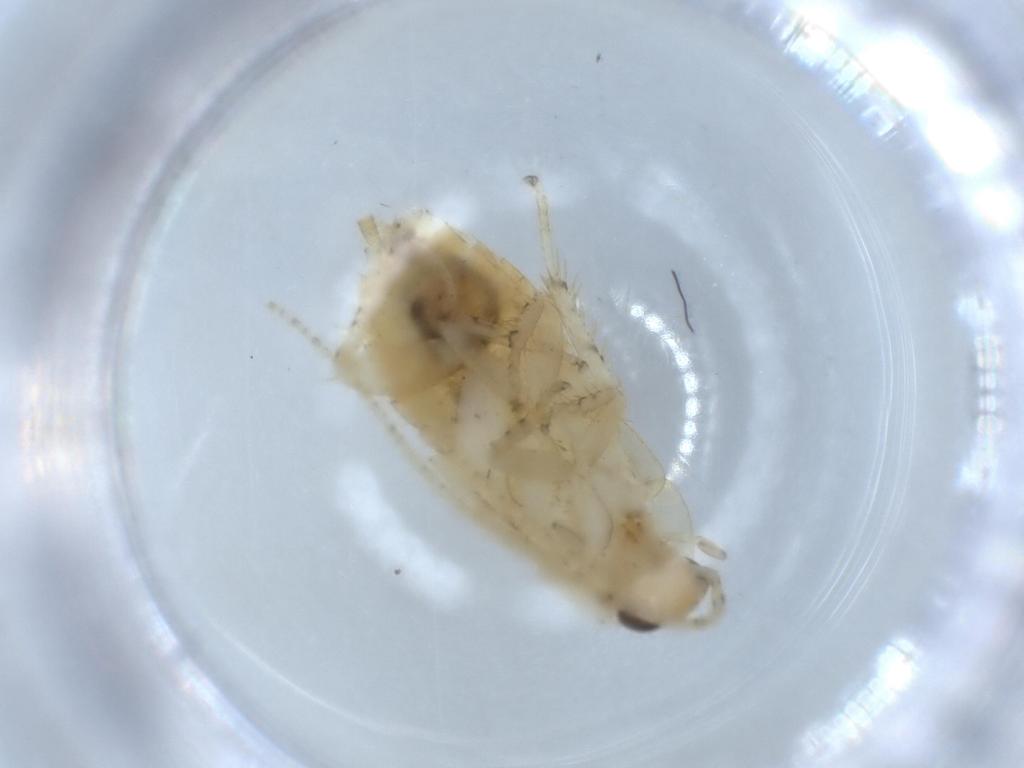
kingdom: Animalia
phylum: Arthropoda
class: Insecta
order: Blattodea
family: Ectobiidae
